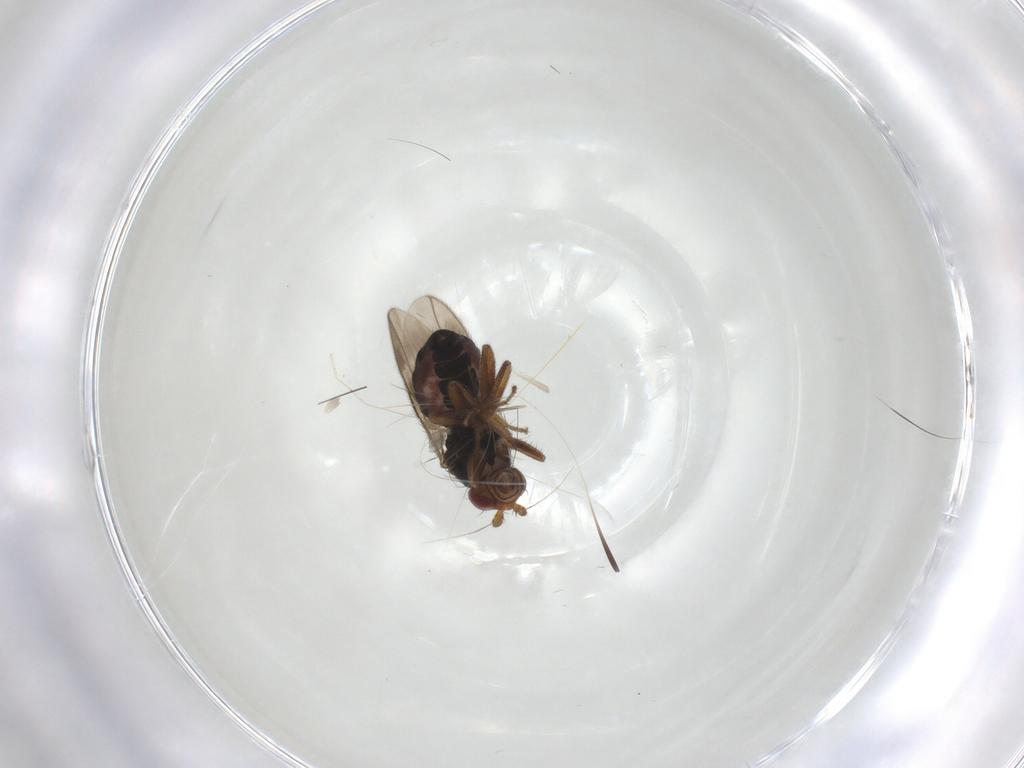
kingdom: Animalia
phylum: Arthropoda
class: Insecta
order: Diptera
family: Sphaeroceridae
